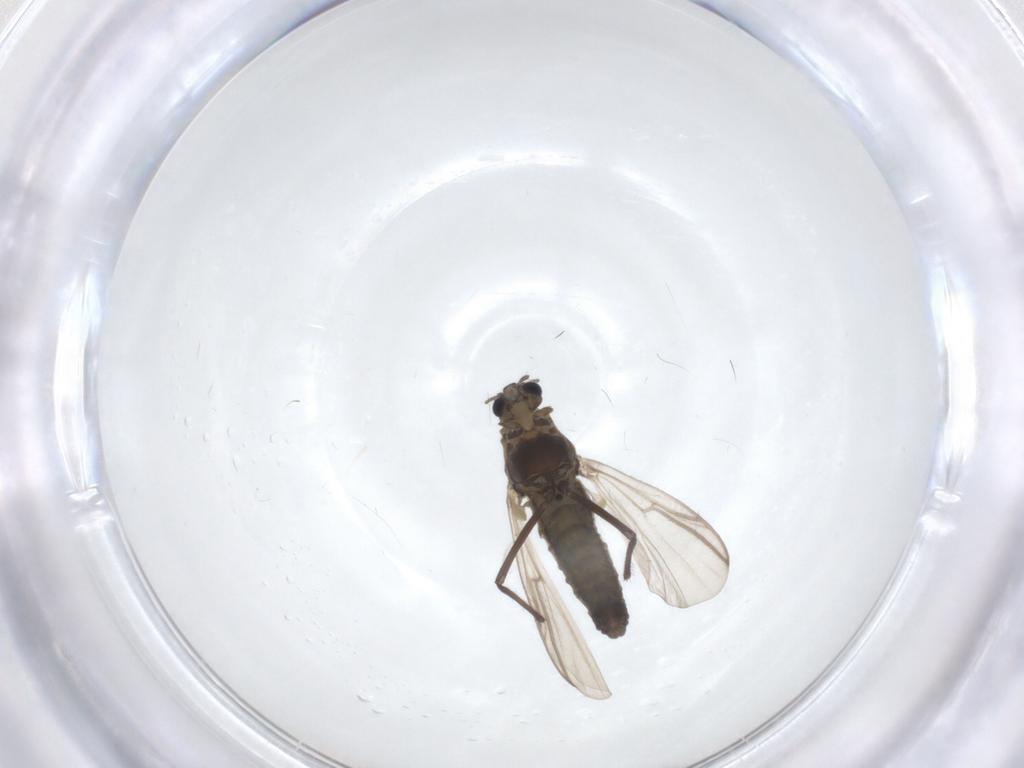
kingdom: Animalia
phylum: Arthropoda
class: Insecta
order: Diptera
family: Chironomidae
